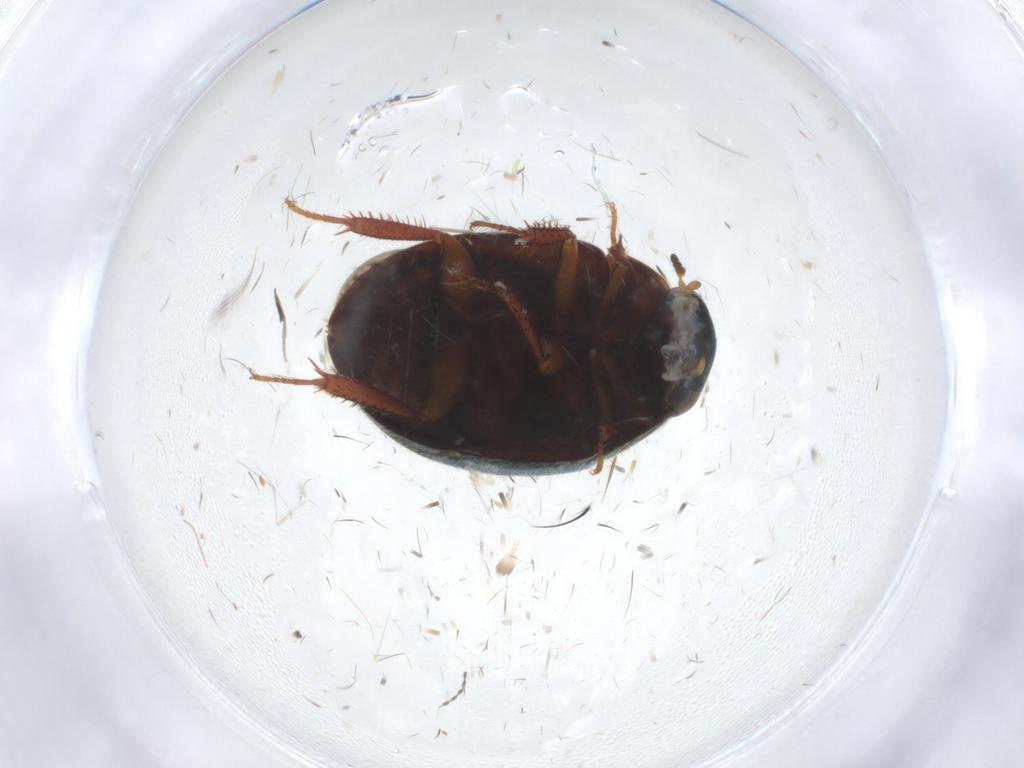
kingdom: Animalia
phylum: Arthropoda
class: Insecta
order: Coleoptera
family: Hydrophilidae
